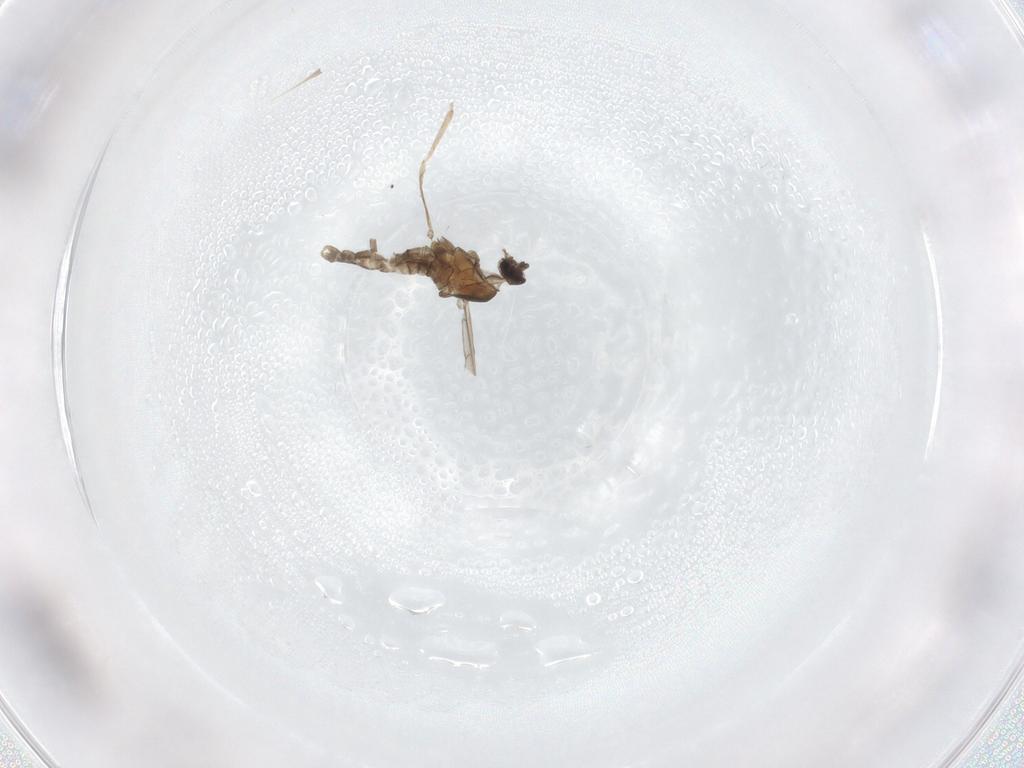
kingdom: Animalia
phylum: Arthropoda
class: Insecta
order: Diptera
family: Cecidomyiidae
